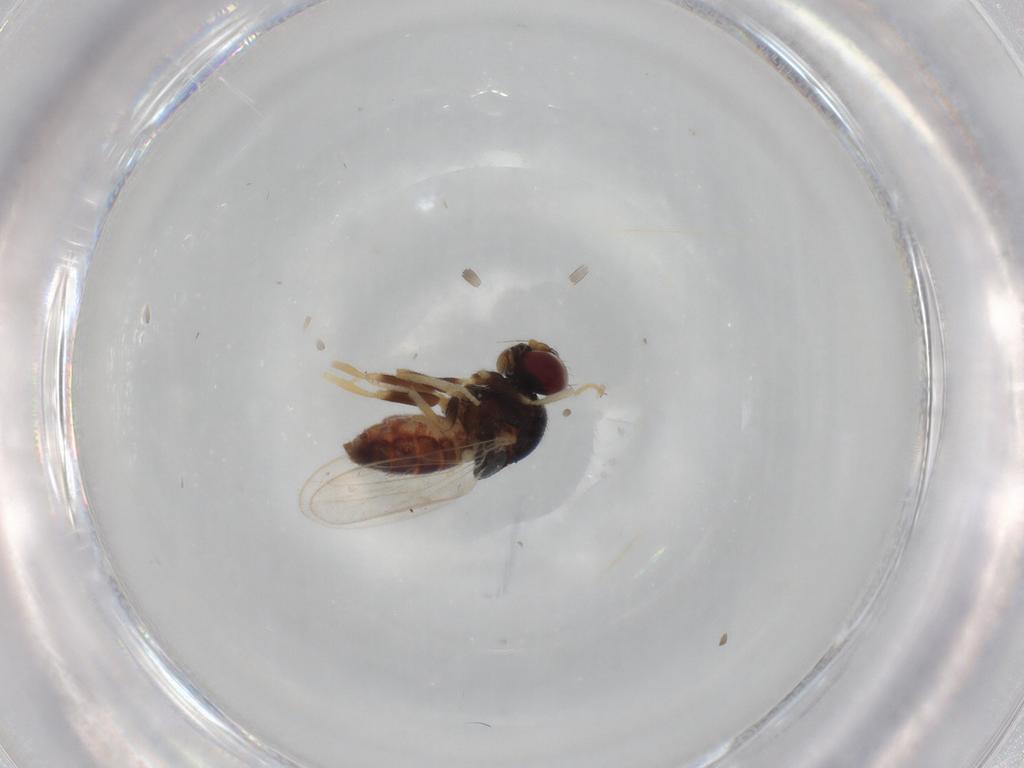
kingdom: Animalia
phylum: Arthropoda
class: Insecta
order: Diptera
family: Chloropidae
